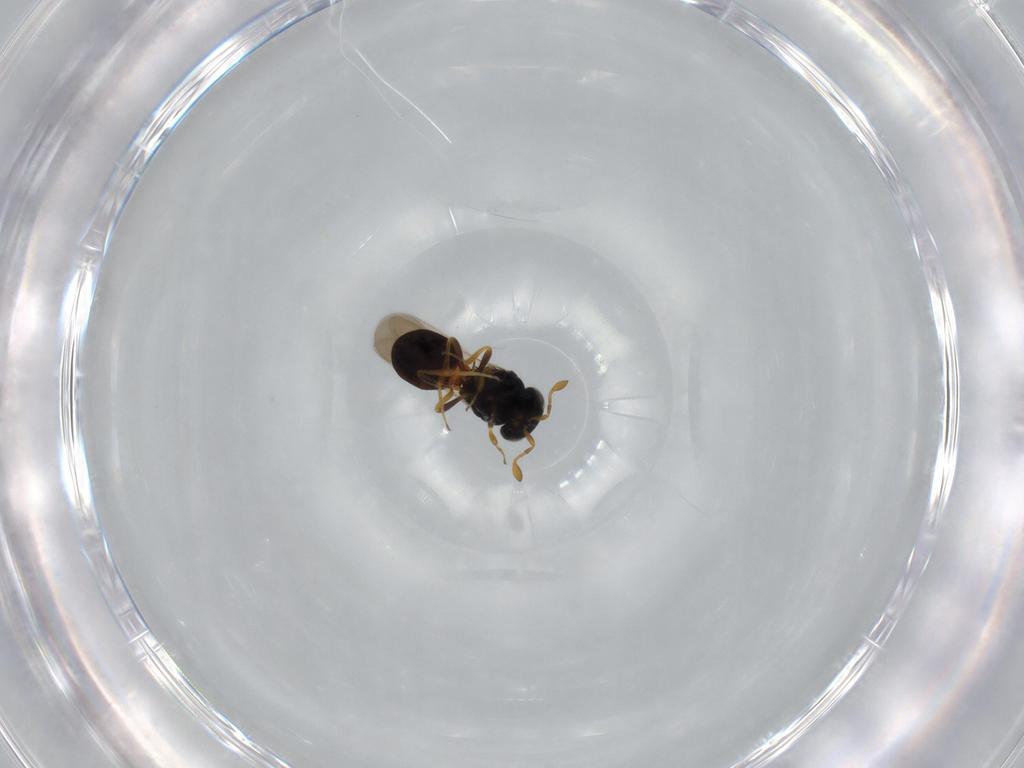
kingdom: Animalia
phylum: Arthropoda
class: Insecta
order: Hymenoptera
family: Scelionidae
